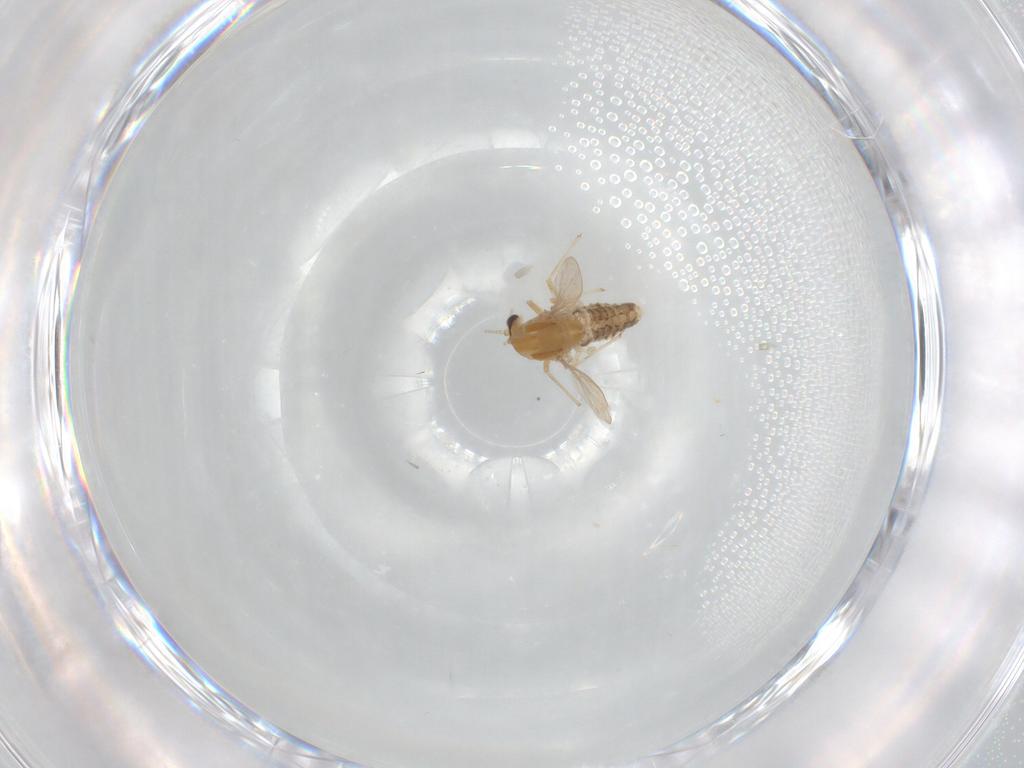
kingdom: Animalia
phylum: Arthropoda
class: Insecta
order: Diptera
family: Chironomidae
